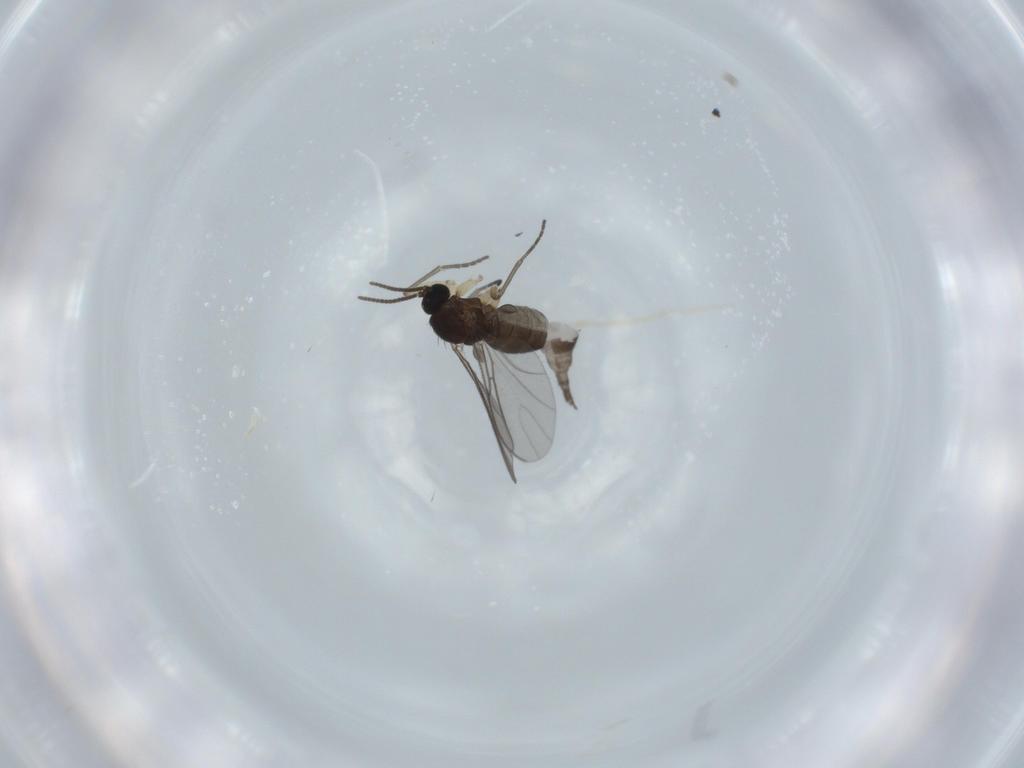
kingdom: Animalia
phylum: Arthropoda
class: Insecta
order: Diptera
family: Sciaridae
